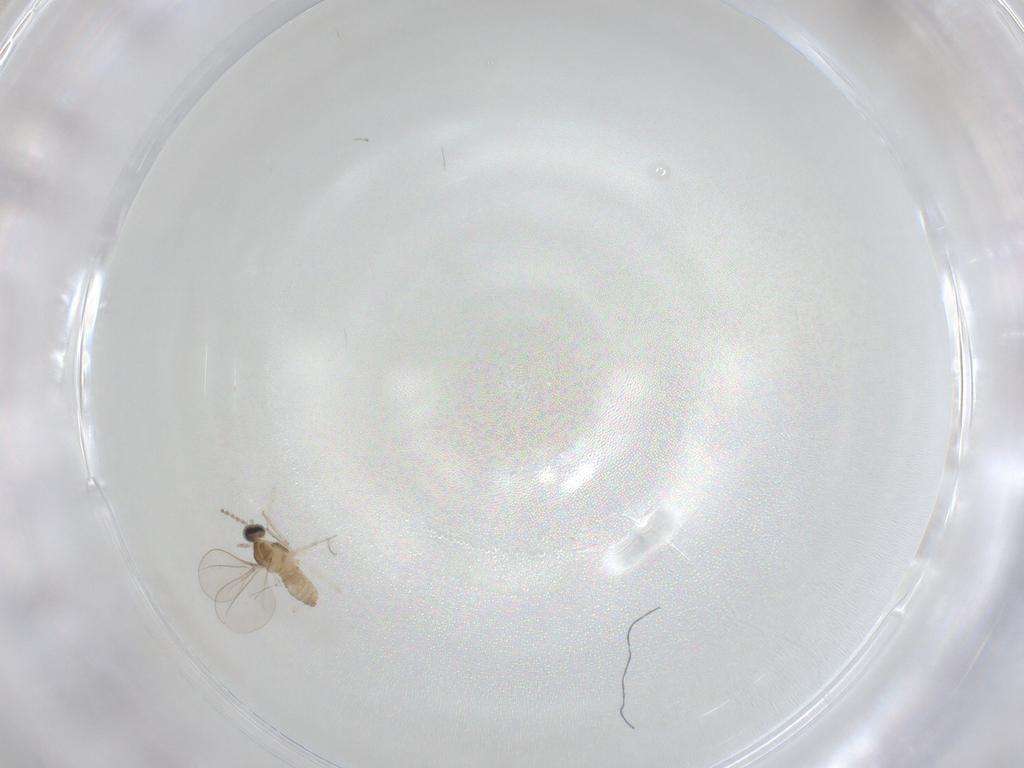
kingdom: Animalia
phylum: Arthropoda
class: Insecta
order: Diptera
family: Cecidomyiidae
